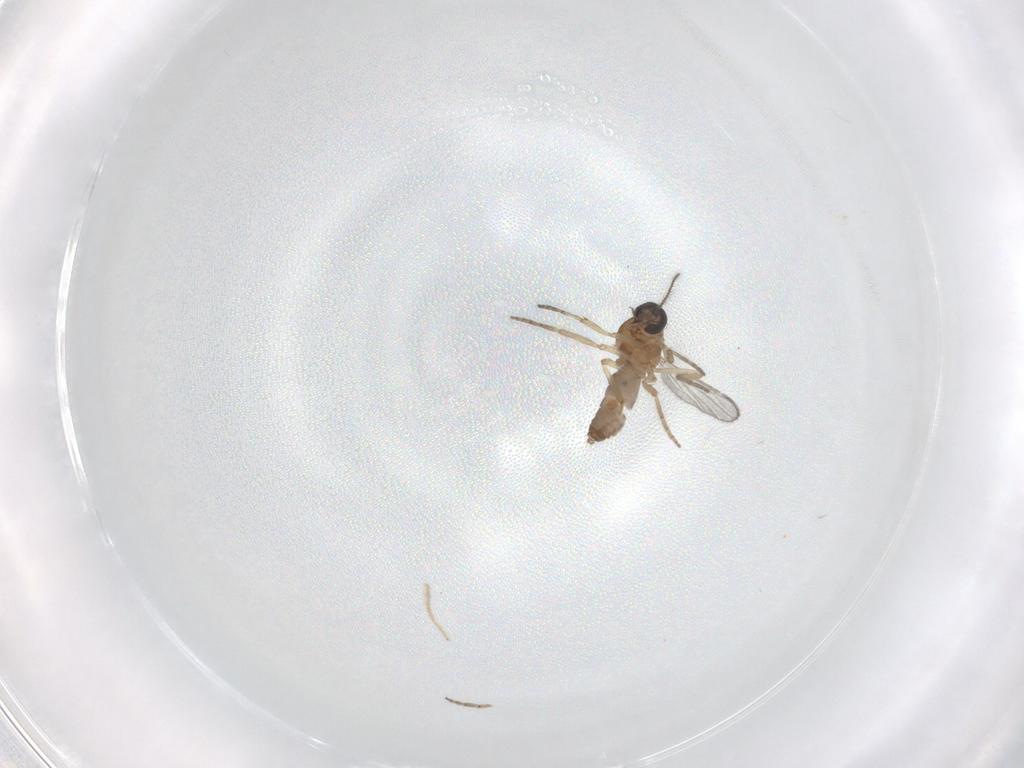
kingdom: Animalia
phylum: Arthropoda
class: Insecta
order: Diptera
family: Chironomidae
